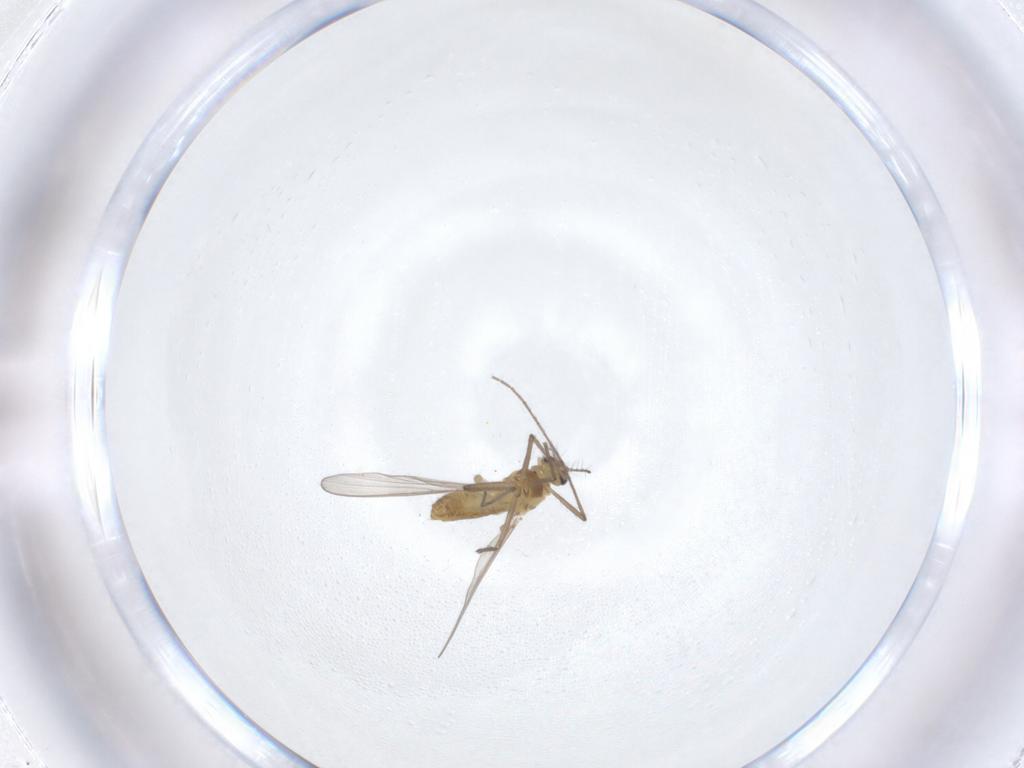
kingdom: Animalia
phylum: Arthropoda
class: Insecta
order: Diptera
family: Chironomidae
